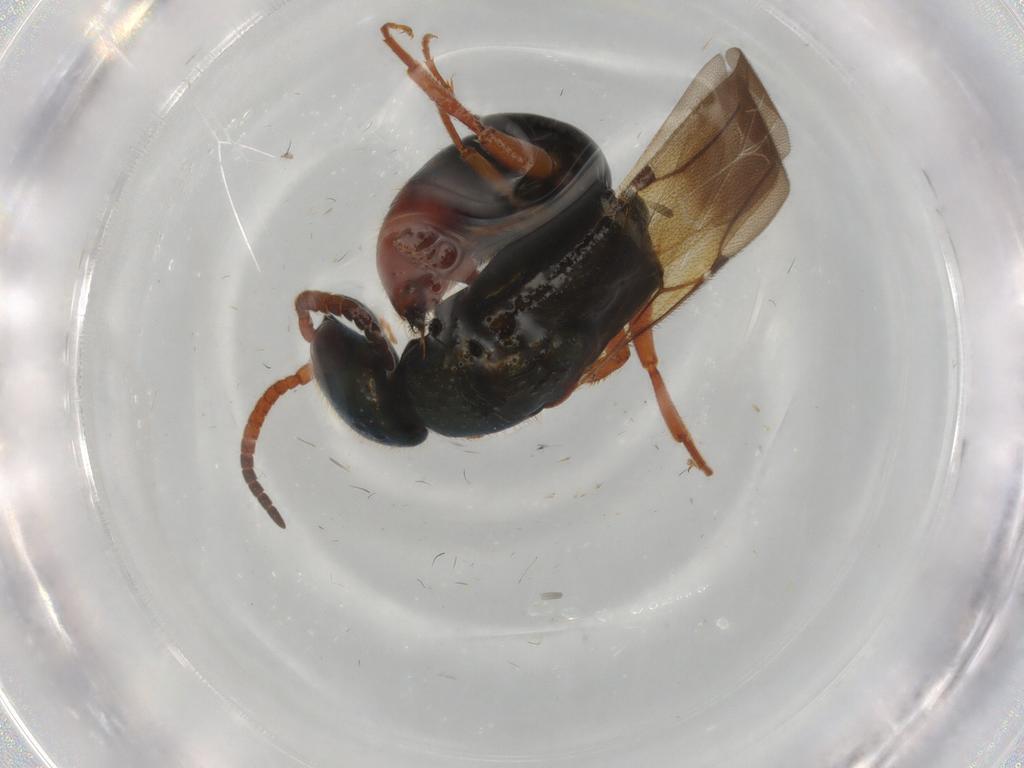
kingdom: Animalia
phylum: Arthropoda
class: Insecta
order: Hymenoptera
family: Bethylidae
